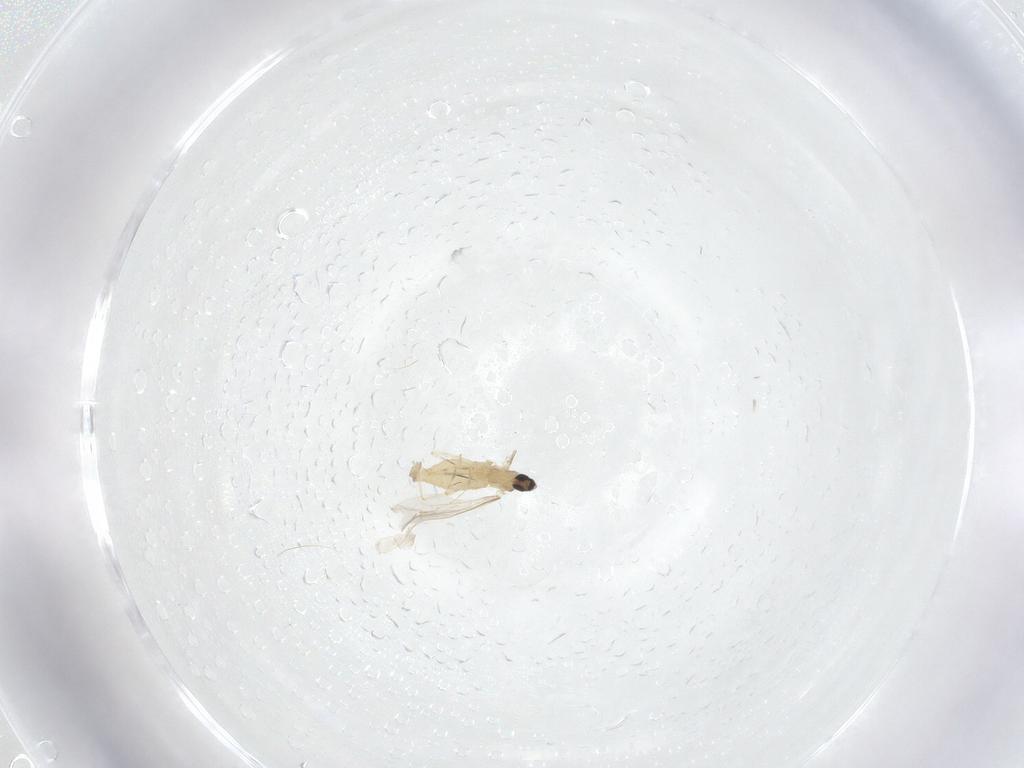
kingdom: Animalia
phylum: Arthropoda
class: Insecta
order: Diptera
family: Cecidomyiidae
